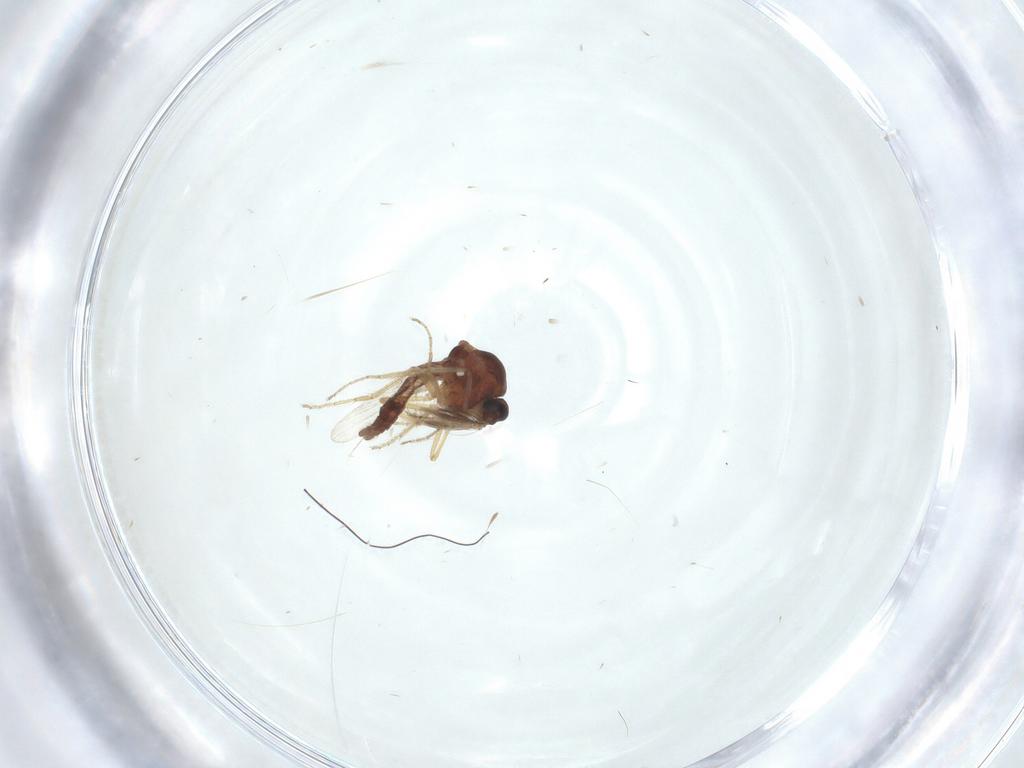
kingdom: Animalia
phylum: Arthropoda
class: Insecta
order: Diptera
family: Ceratopogonidae
